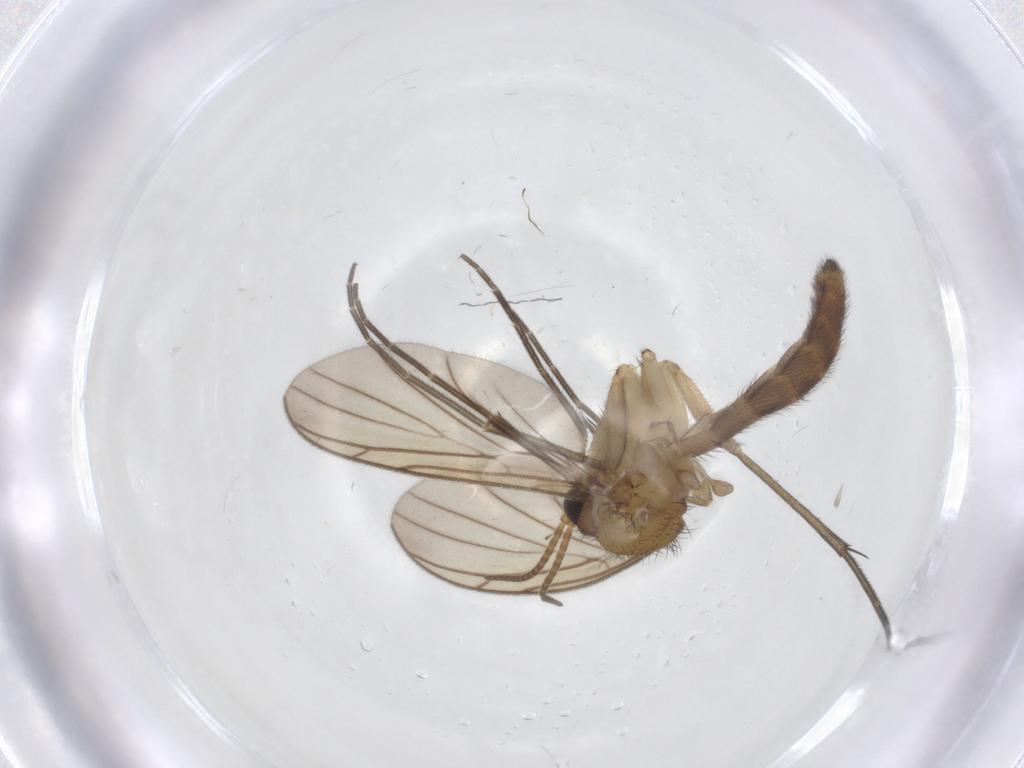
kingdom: Animalia
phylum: Arthropoda
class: Insecta
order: Diptera
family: Keroplatidae
